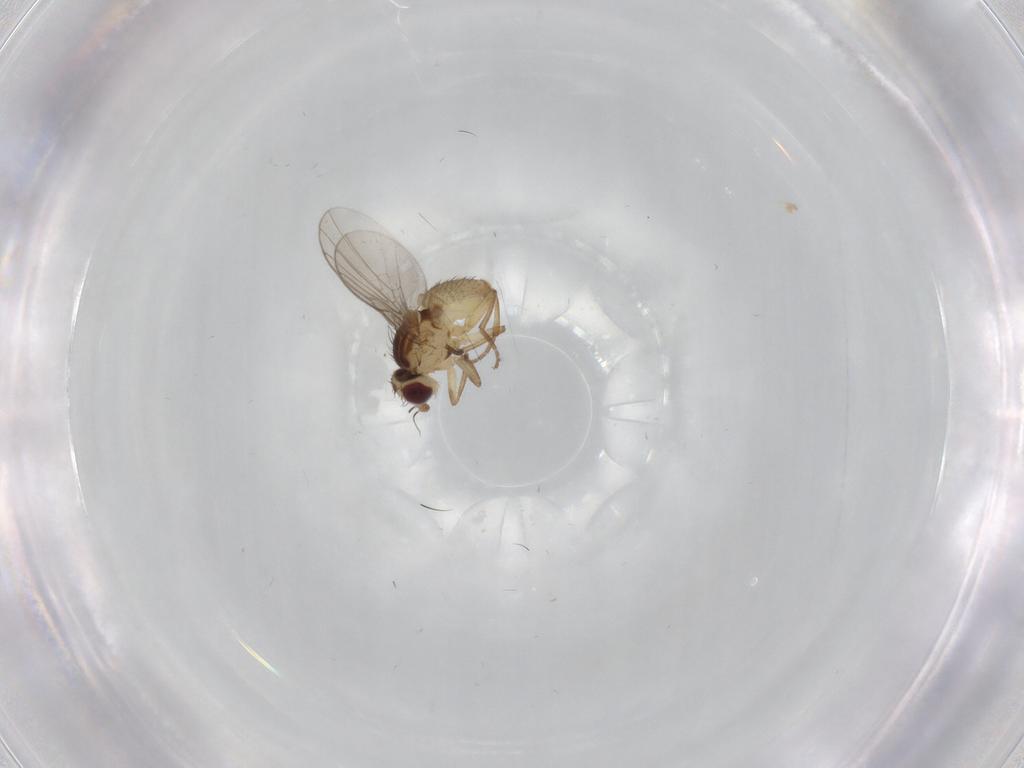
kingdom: Animalia
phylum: Arthropoda
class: Insecta
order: Diptera
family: Agromyzidae
